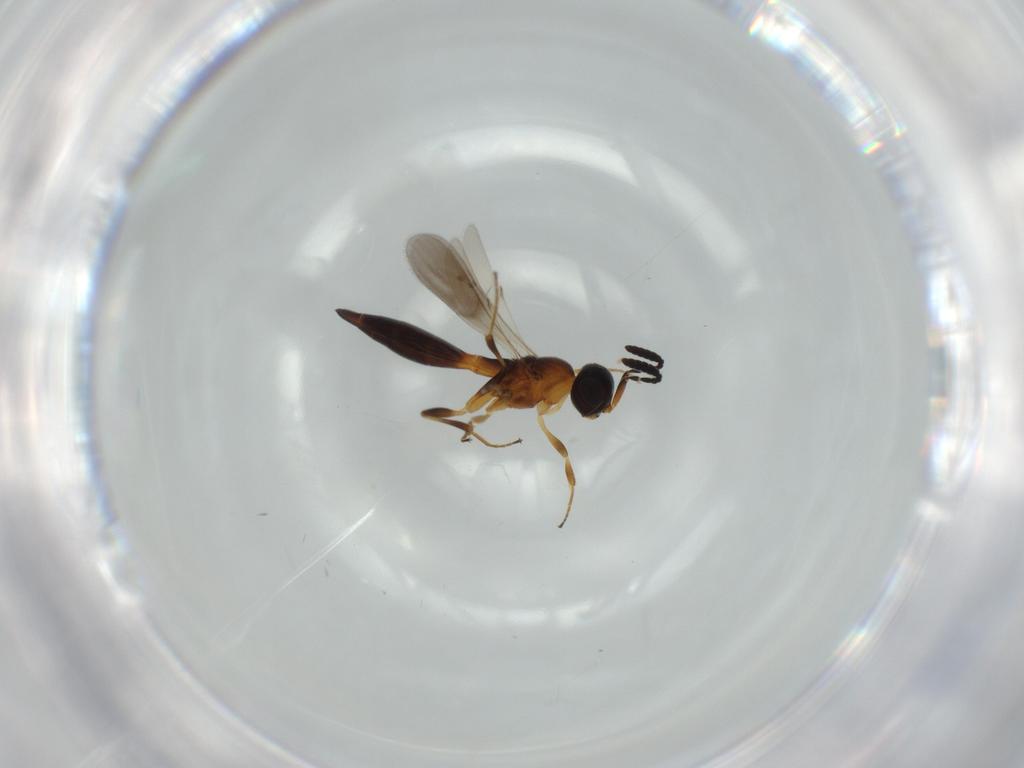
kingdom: Animalia
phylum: Arthropoda
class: Insecta
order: Hymenoptera
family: Scelionidae
